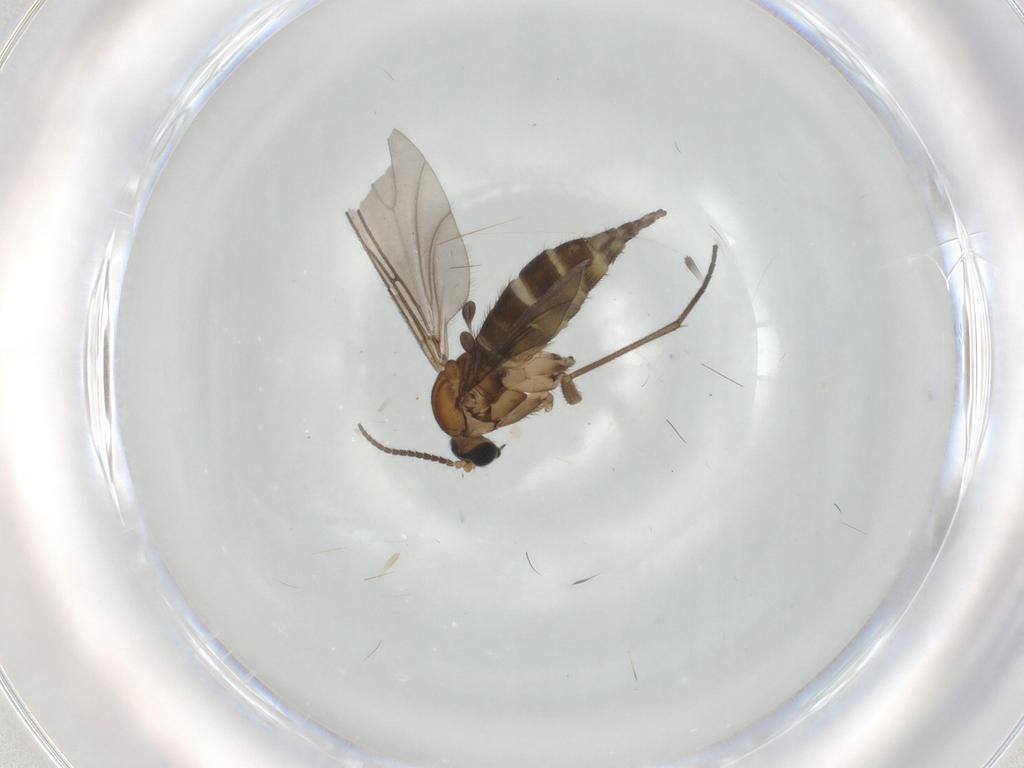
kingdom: Animalia
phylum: Arthropoda
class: Insecta
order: Diptera
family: Sciaridae
